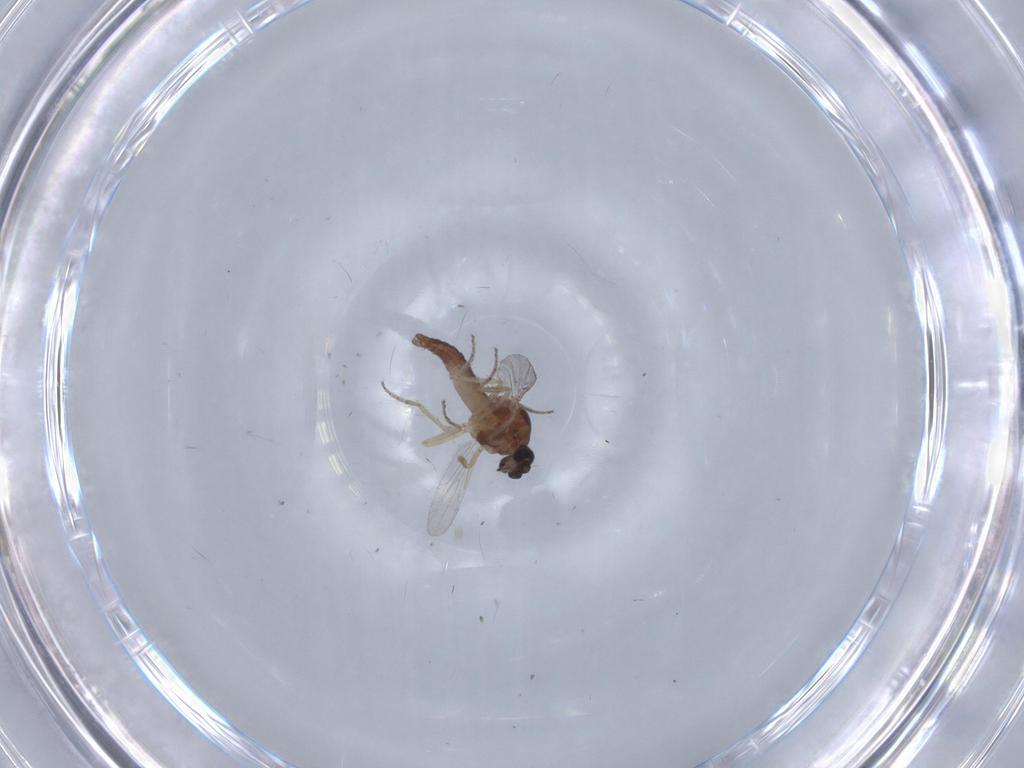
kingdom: Animalia
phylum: Arthropoda
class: Insecta
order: Diptera
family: Ceratopogonidae
